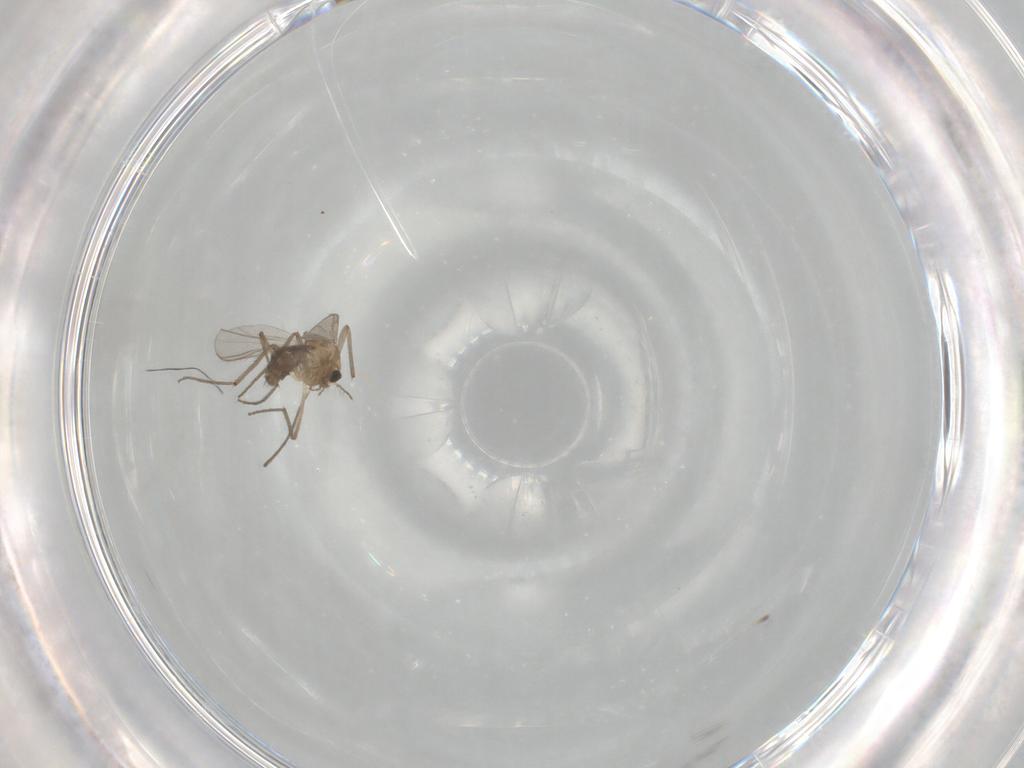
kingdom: Animalia
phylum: Arthropoda
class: Insecta
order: Diptera
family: Chironomidae
